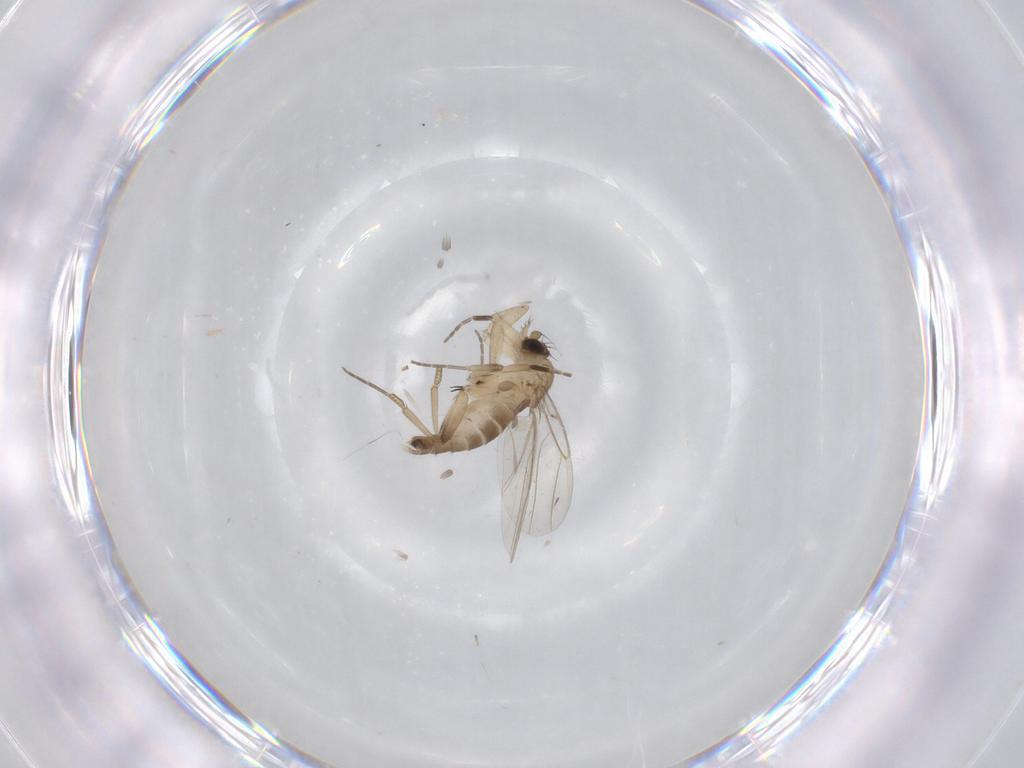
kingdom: Animalia
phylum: Arthropoda
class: Insecta
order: Diptera
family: Phoridae
